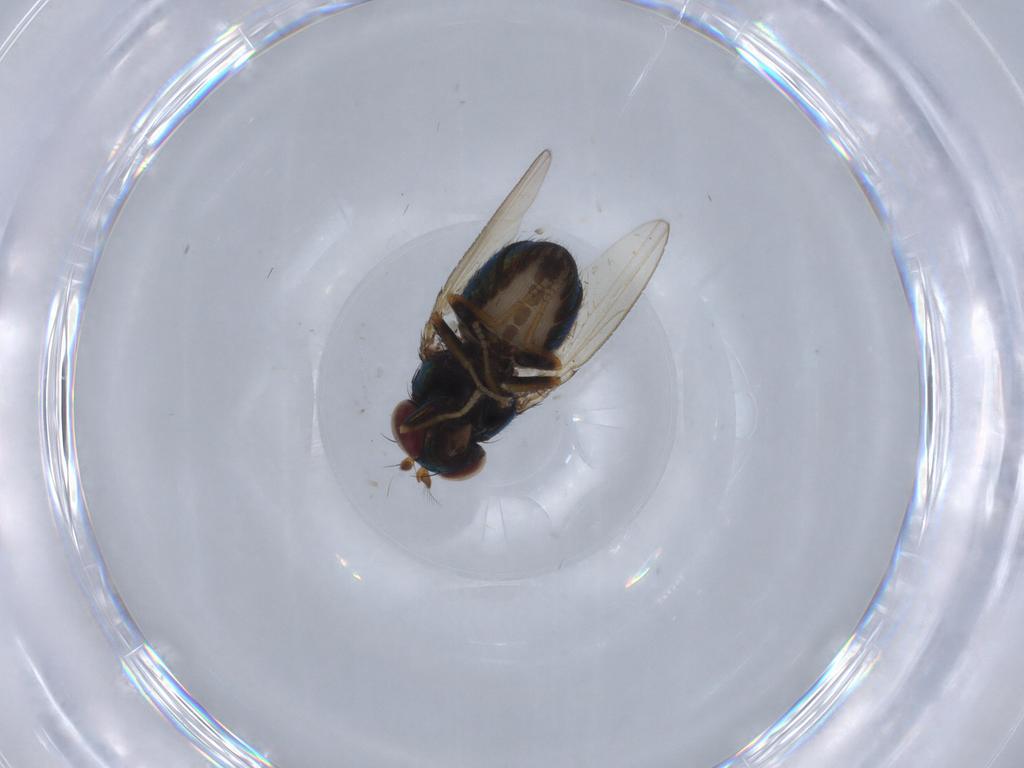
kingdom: Animalia
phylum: Arthropoda
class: Insecta
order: Diptera
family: Ephydridae
